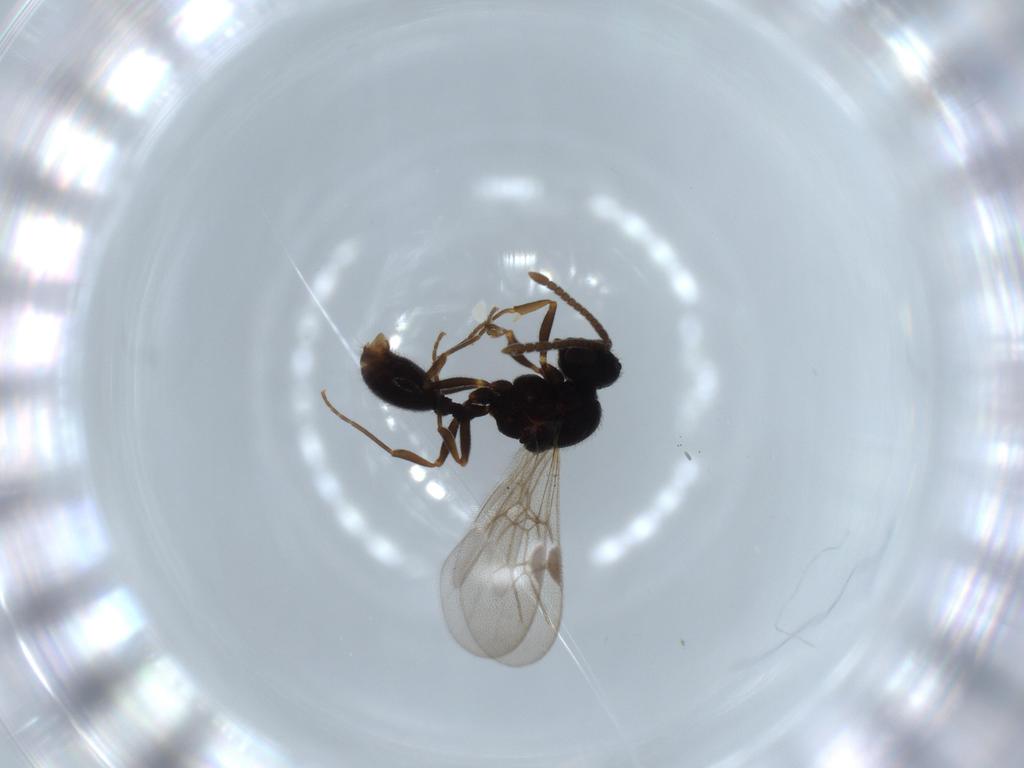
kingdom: Animalia
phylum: Arthropoda
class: Insecta
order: Hymenoptera
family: Formicidae
